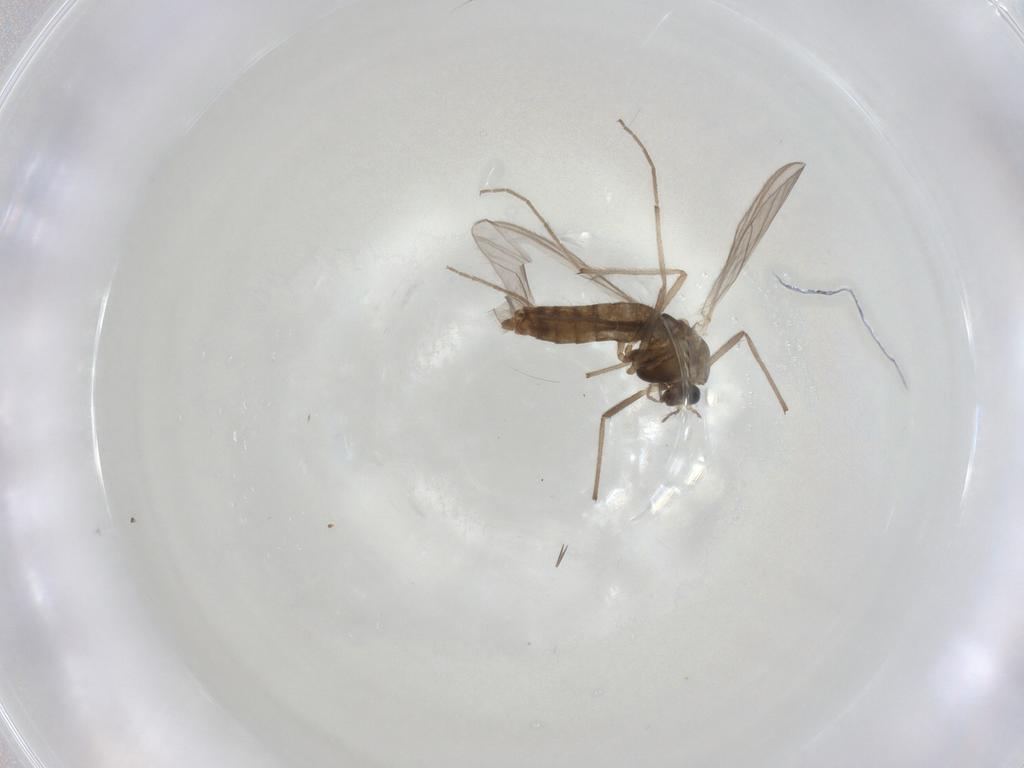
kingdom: Animalia
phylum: Arthropoda
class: Insecta
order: Diptera
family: Chironomidae
